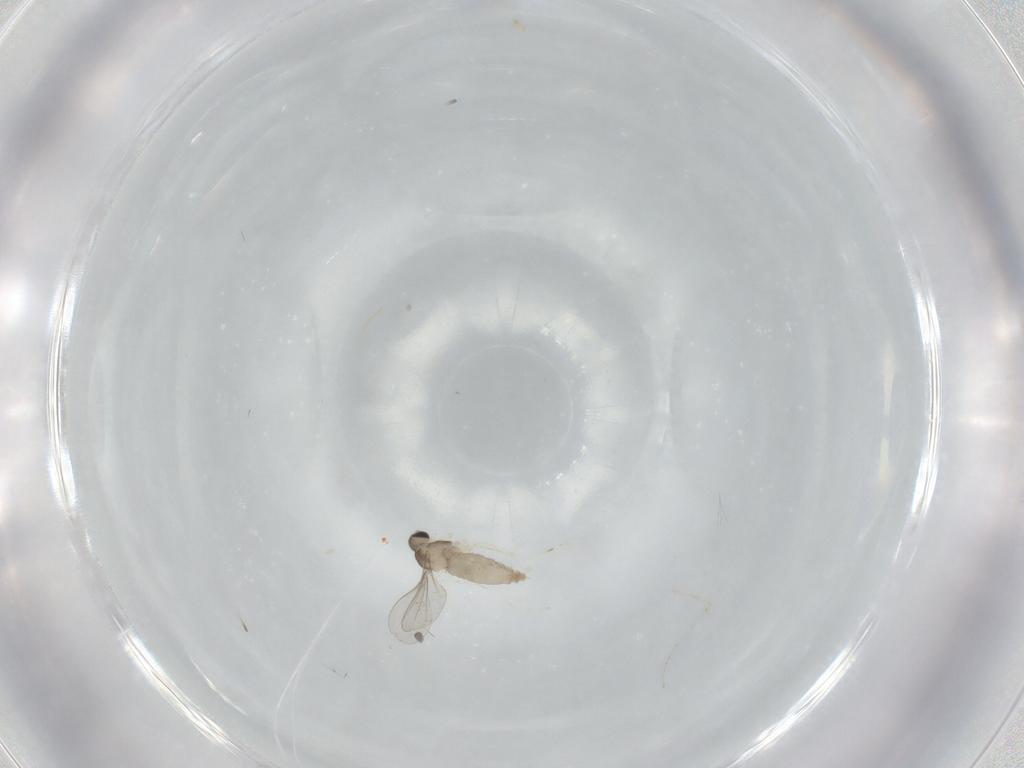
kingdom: Animalia
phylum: Arthropoda
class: Insecta
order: Diptera
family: Cecidomyiidae
